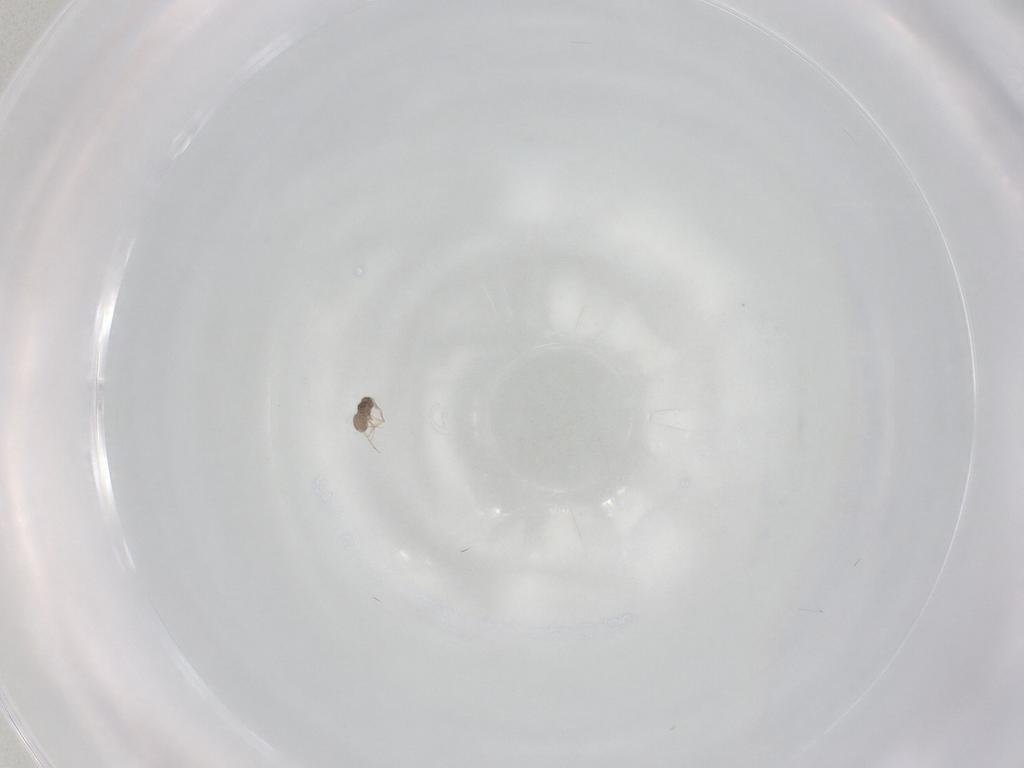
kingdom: Animalia
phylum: Arthropoda
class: Insecta
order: Hymenoptera
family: Mymaridae
